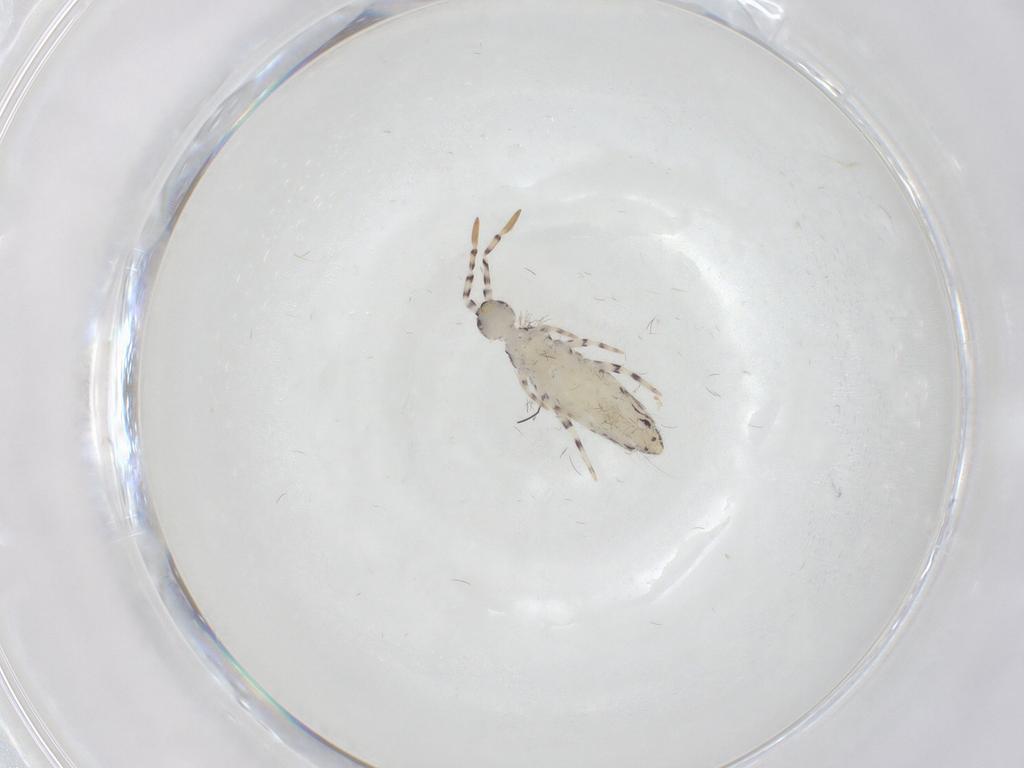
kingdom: Animalia
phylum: Arthropoda
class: Collembola
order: Entomobryomorpha
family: Entomobryidae
